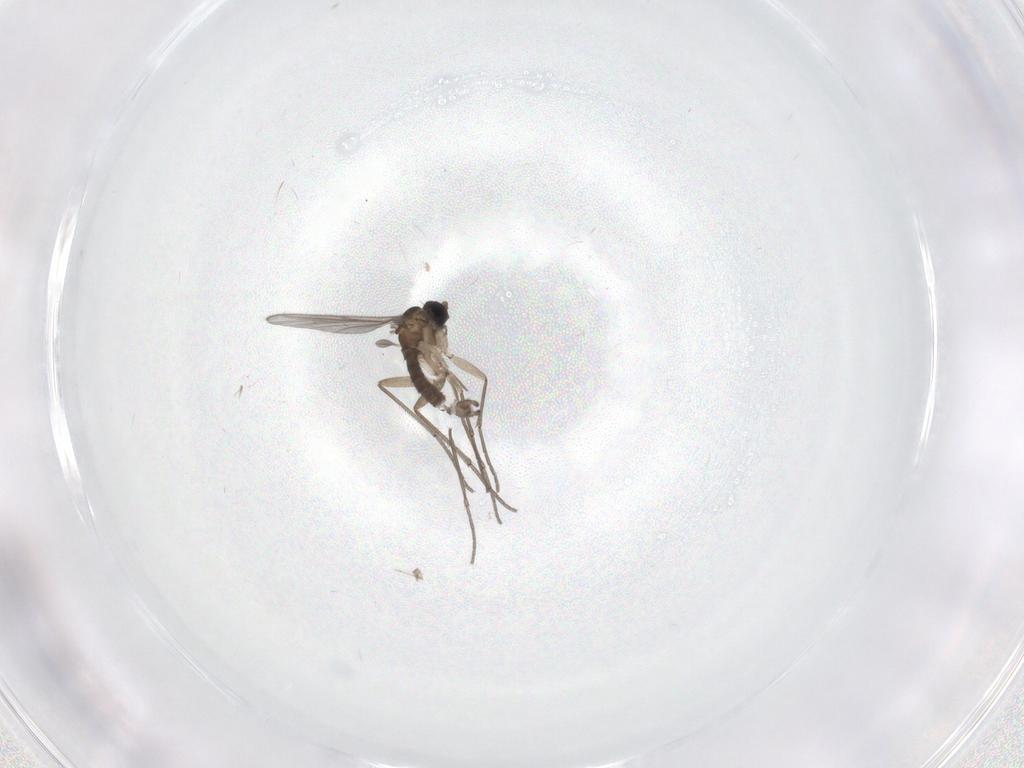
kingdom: Animalia
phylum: Arthropoda
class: Insecta
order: Diptera
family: Sciaridae
